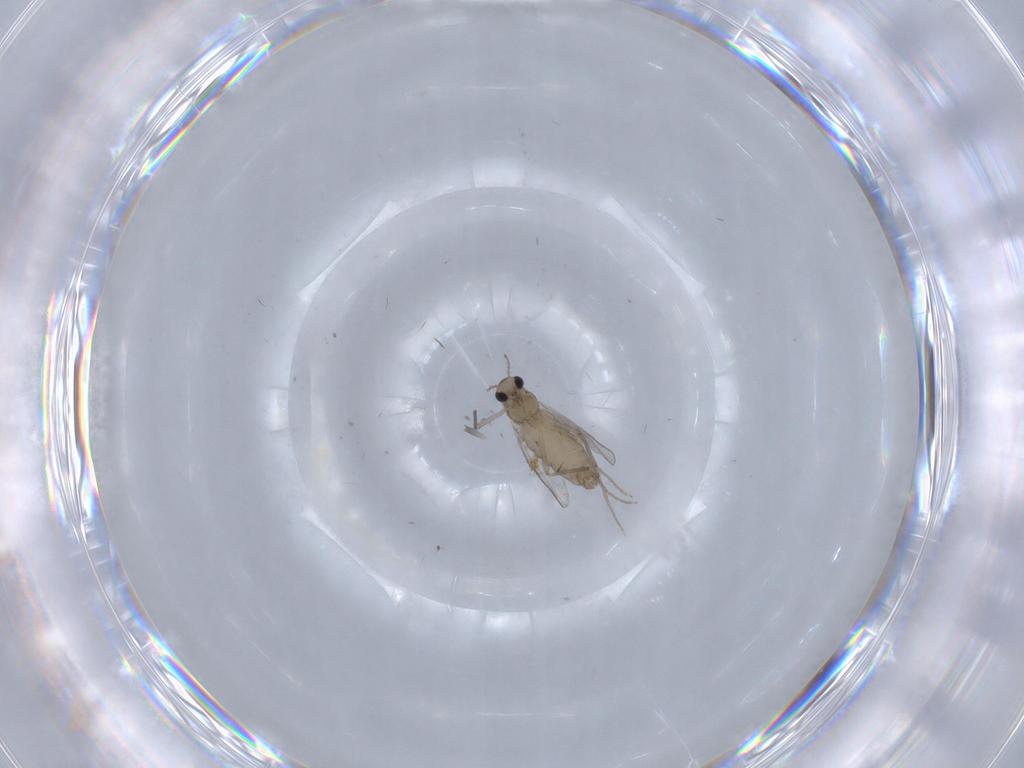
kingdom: Animalia
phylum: Arthropoda
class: Insecta
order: Diptera
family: Chironomidae
